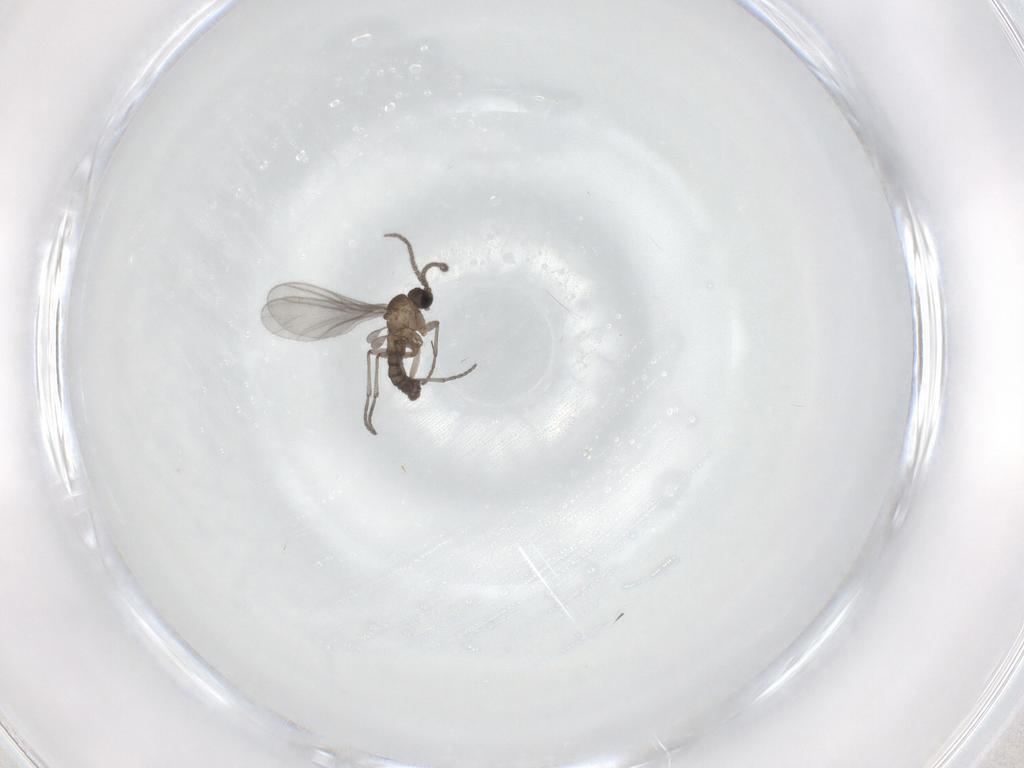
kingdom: Animalia
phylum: Arthropoda
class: Insecta
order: Diptera
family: Sciaridae
